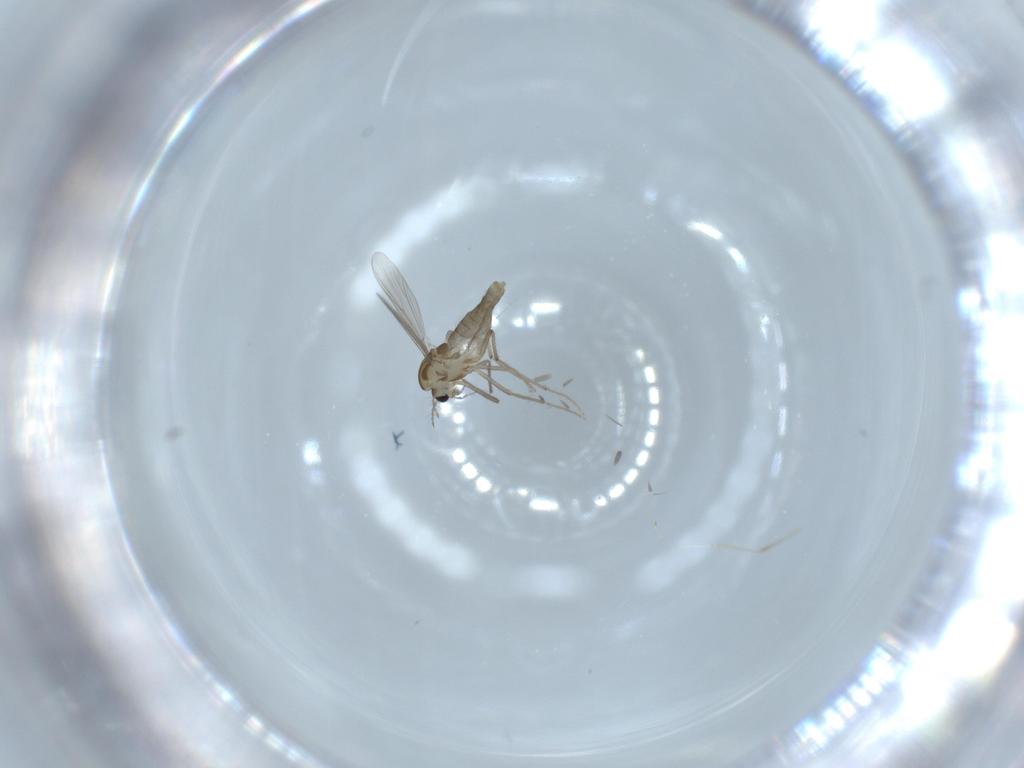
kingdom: Animalia
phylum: Arthropoda
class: Insecta
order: Diptera
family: Chironomidae
